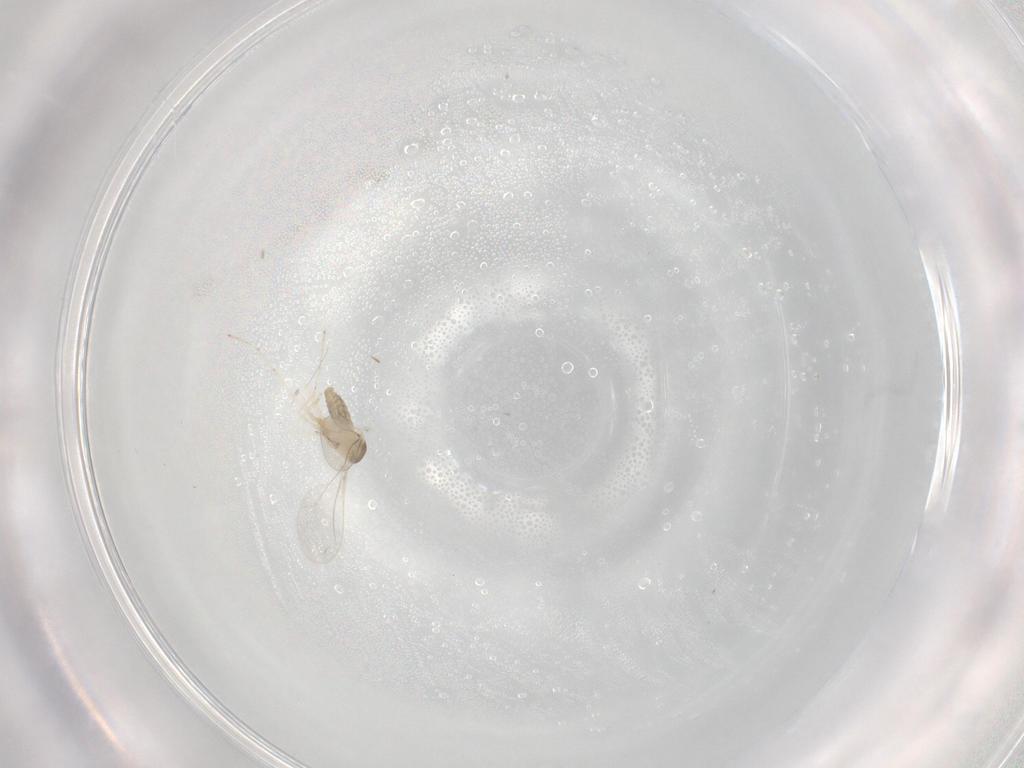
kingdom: Animalia
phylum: Arthropoda
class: Insecta
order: Diptera
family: Cecidomyiidae
